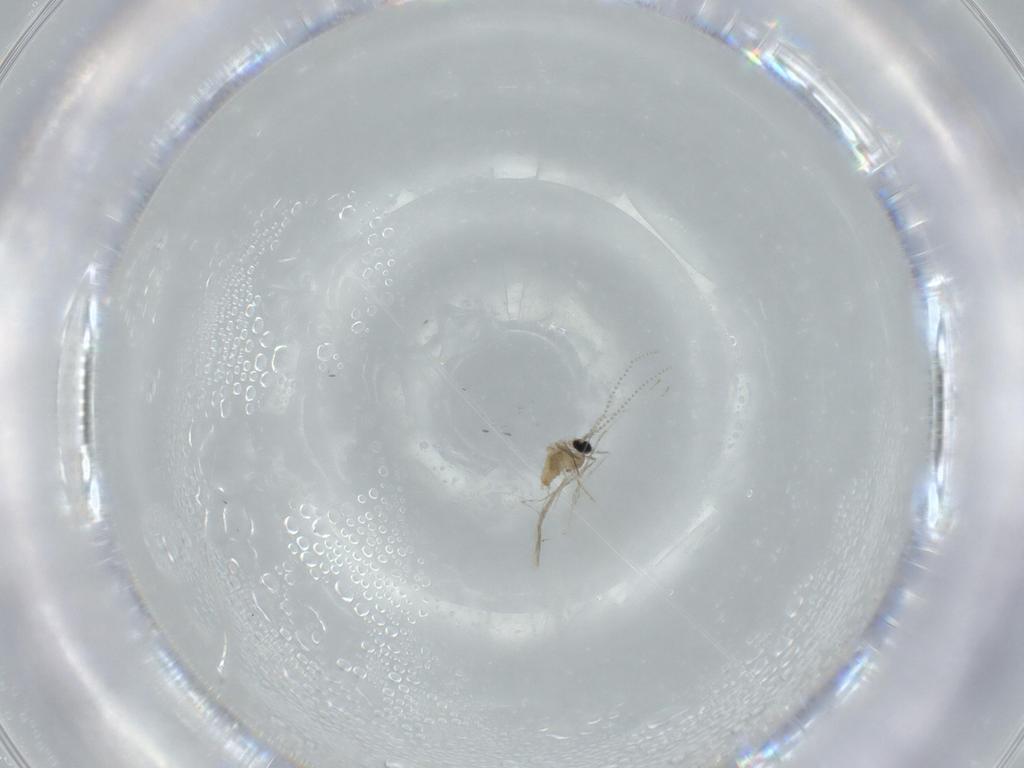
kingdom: Animalia
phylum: Arthropoda
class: Insecta
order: Diptera
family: Cecidomyiidae
